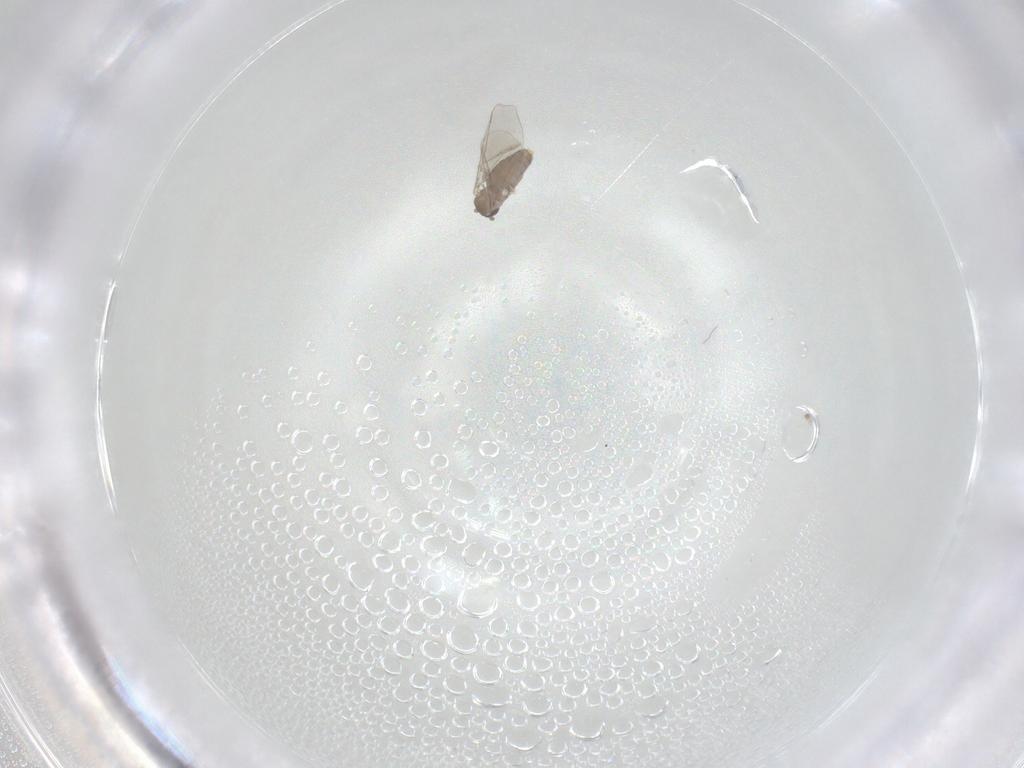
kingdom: Animalia
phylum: Arthropoda
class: Insecta
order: Diptera
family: Cecidomyiidae
